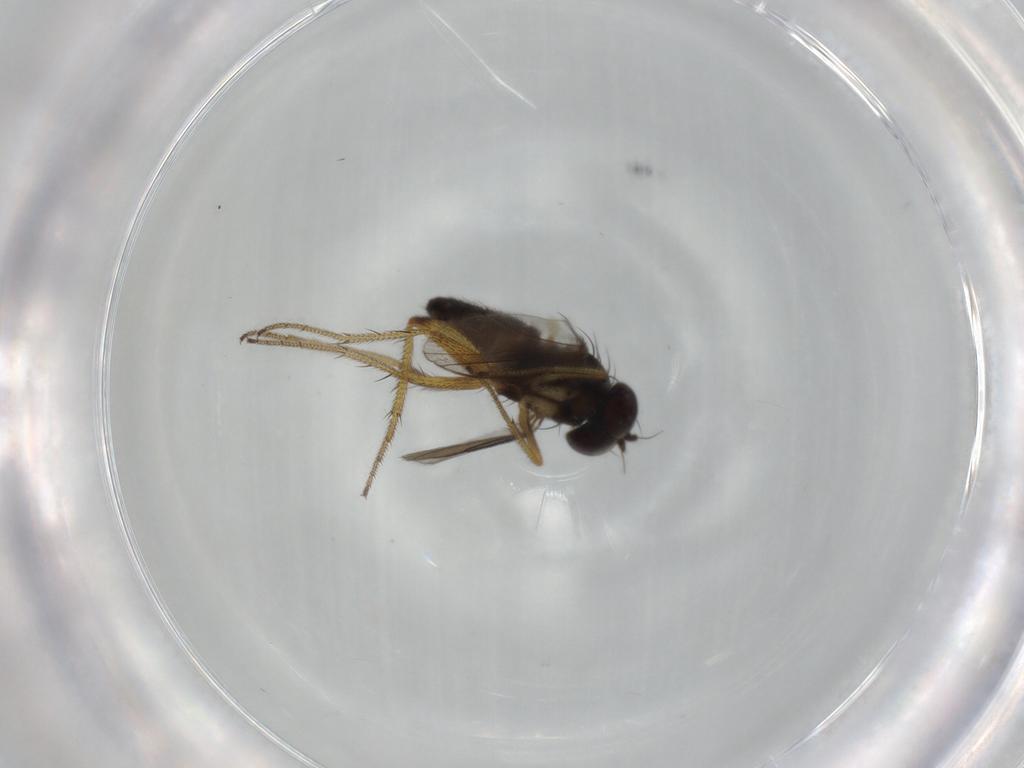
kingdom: Animalia
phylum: Arthropoda
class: Insecta
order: Diptera
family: Dolichopodidae
